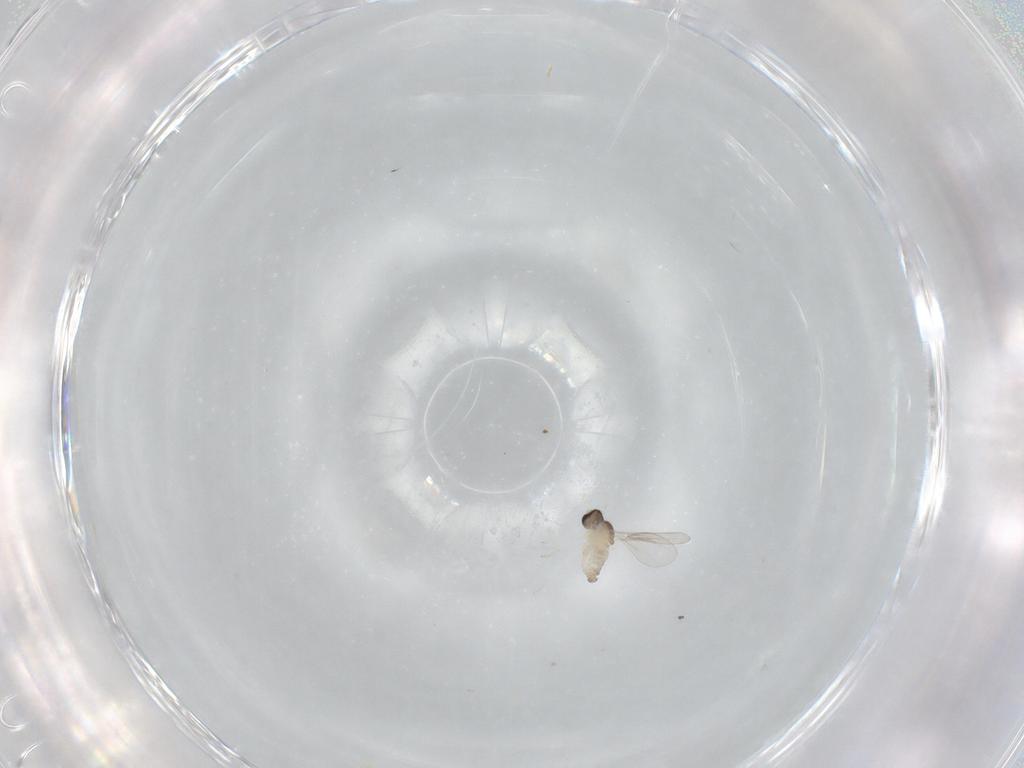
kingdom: Animalia
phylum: Arthropoda
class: Insecta
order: Diptera
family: Cecidomyiidae
